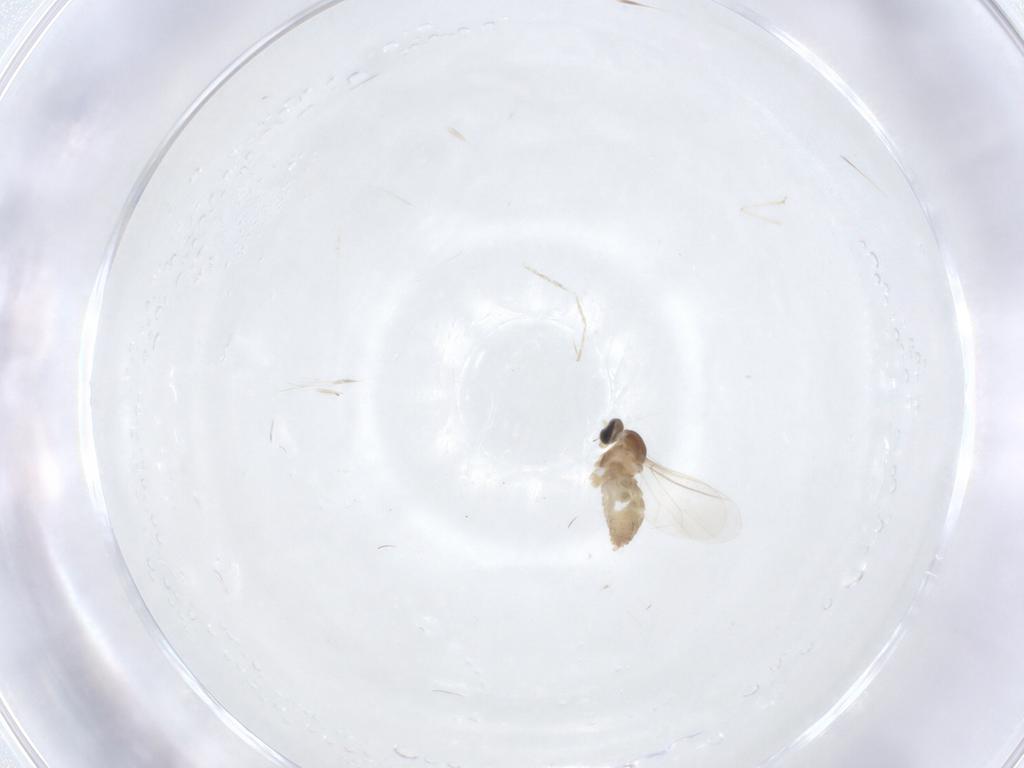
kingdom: Animalia
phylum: Arthropoda
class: Insecta
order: Diptera
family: Cecidomyiidae
